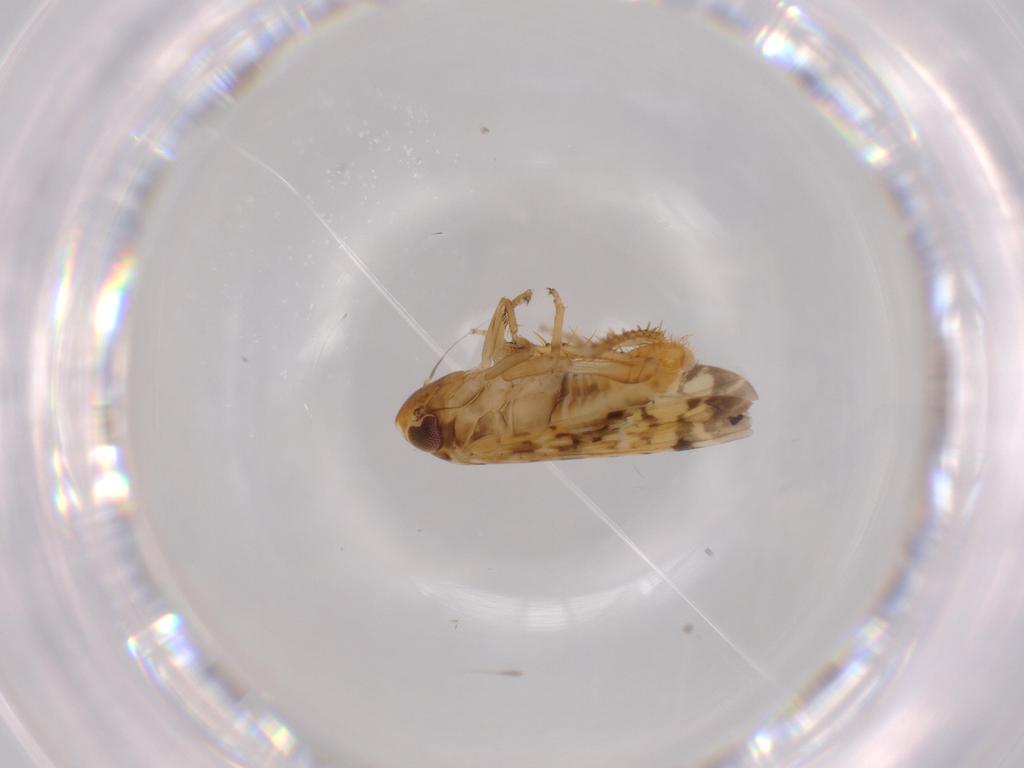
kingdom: Animalia
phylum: Arthropoda
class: Insecta
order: Hemiptera
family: Cicadellidae
